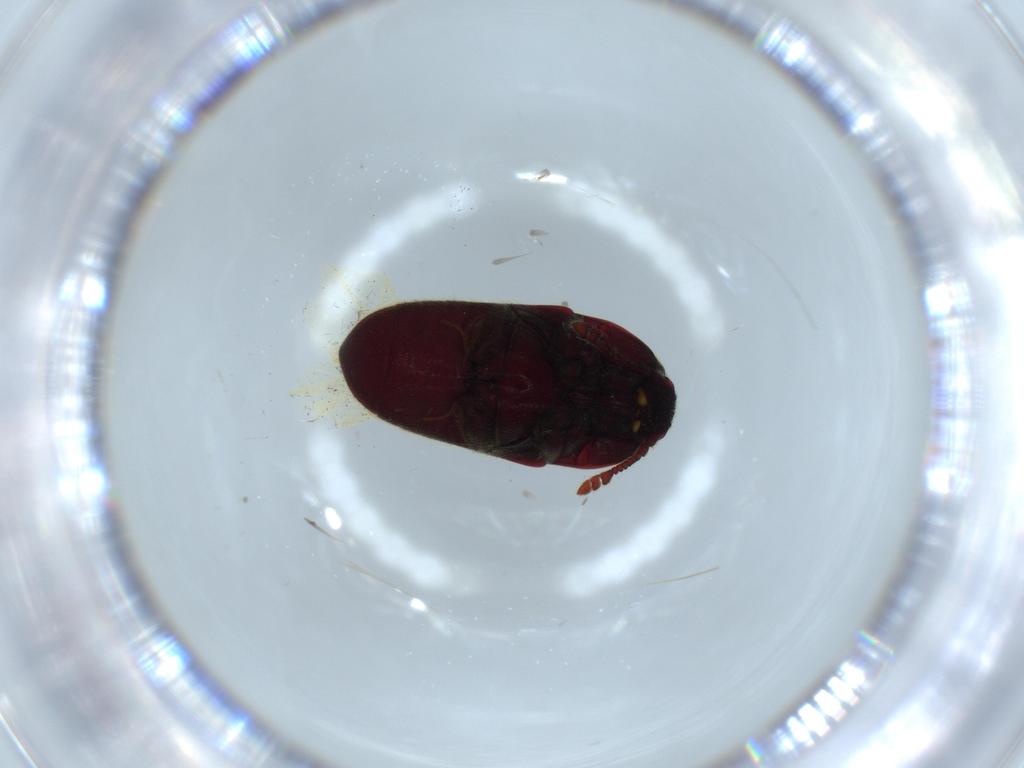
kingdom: Animalia
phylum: Arthropoda
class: Insecta
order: Coleoptera
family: Throscidae
